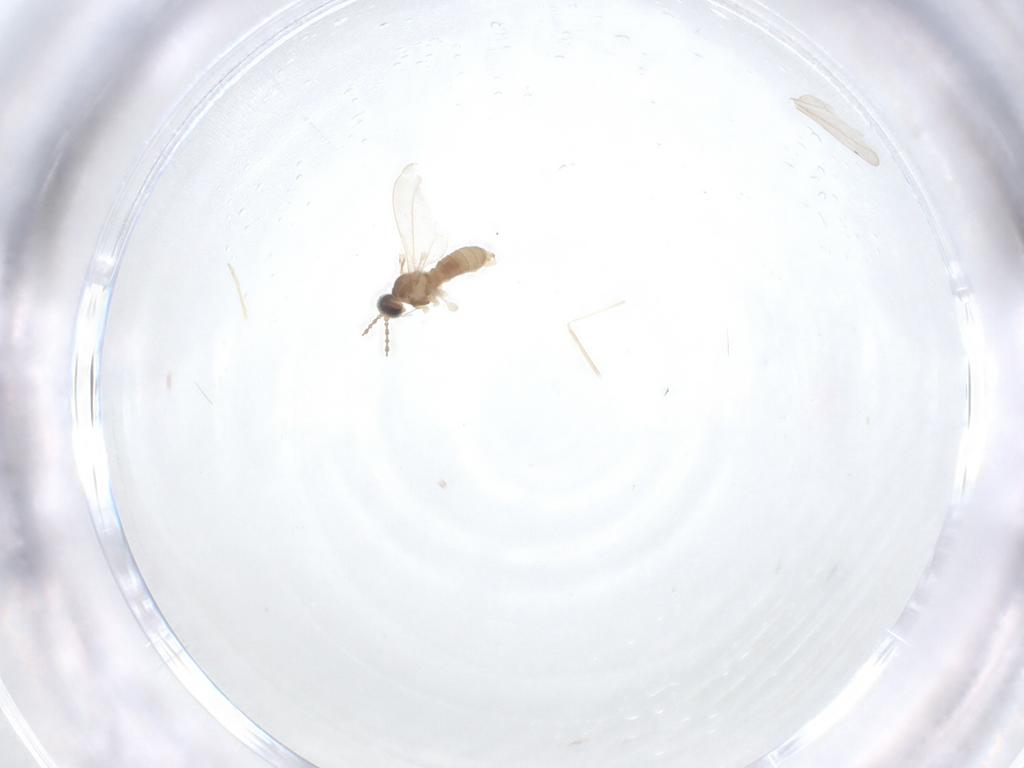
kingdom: Animalia
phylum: Arthropoda
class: Insecta
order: Diptera
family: Cecidomyiidae
